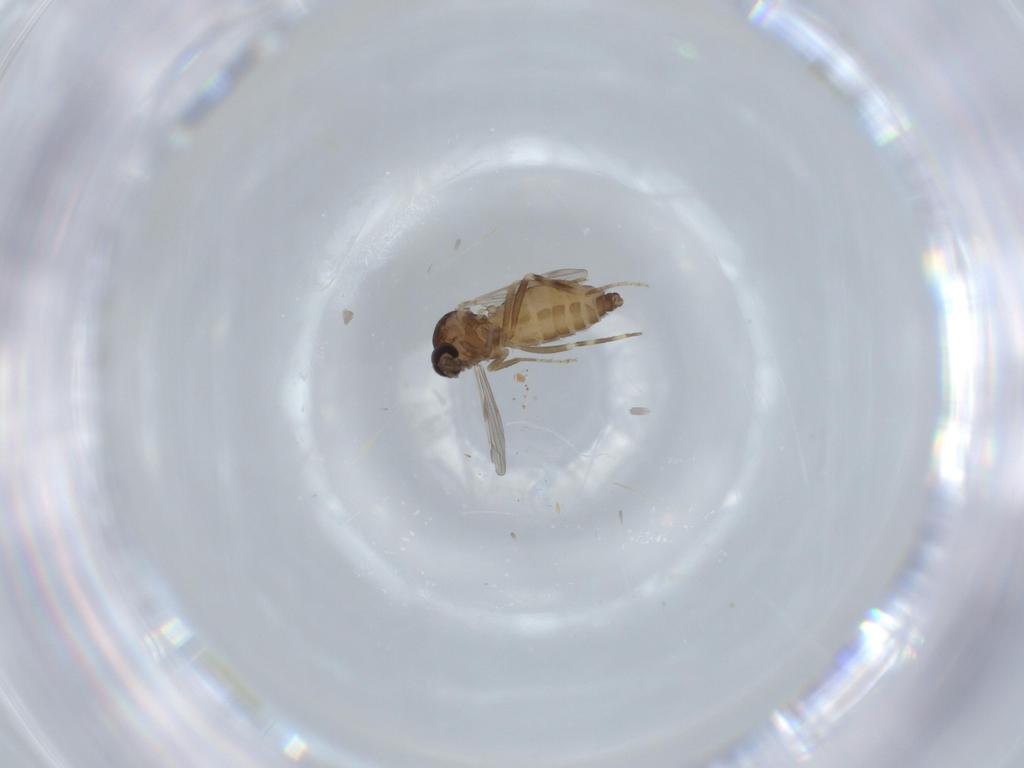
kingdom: Animalia
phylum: Arthropoda
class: Insecta
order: Diptera
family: Ceratopogonidae
